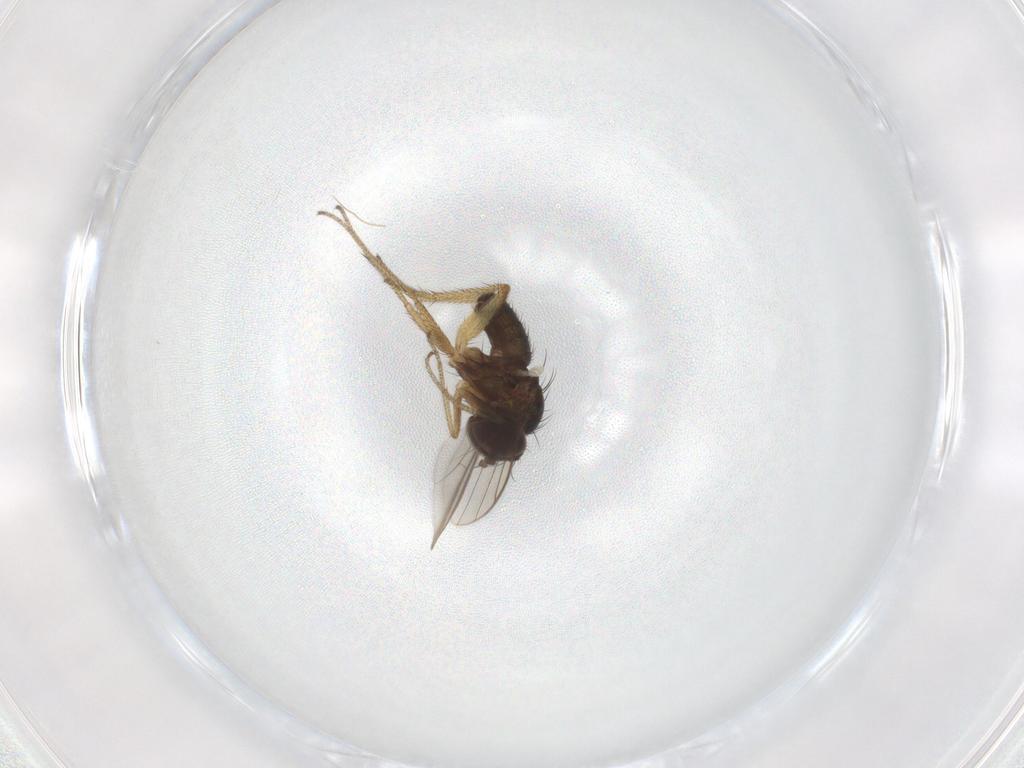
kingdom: Animalia
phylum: Arthropoda
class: Insecta
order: Diptera
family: Dolichopodidae
